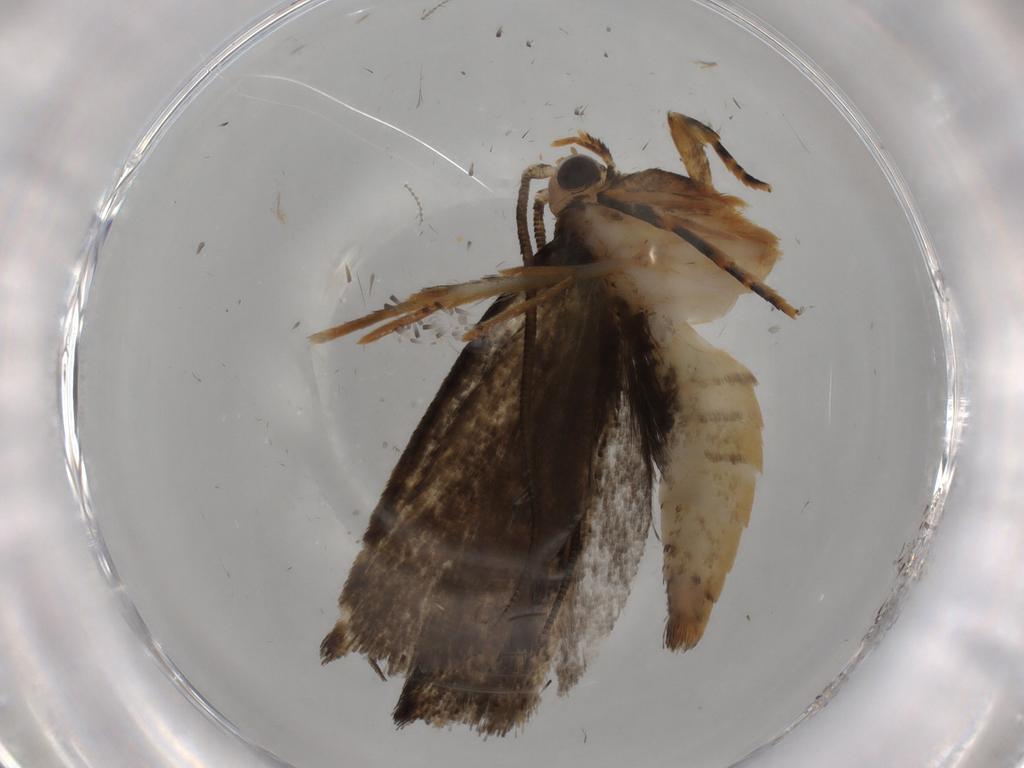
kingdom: Animalia
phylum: Arthropoda
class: Insecta
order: Lepidoptera
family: Tineidae
